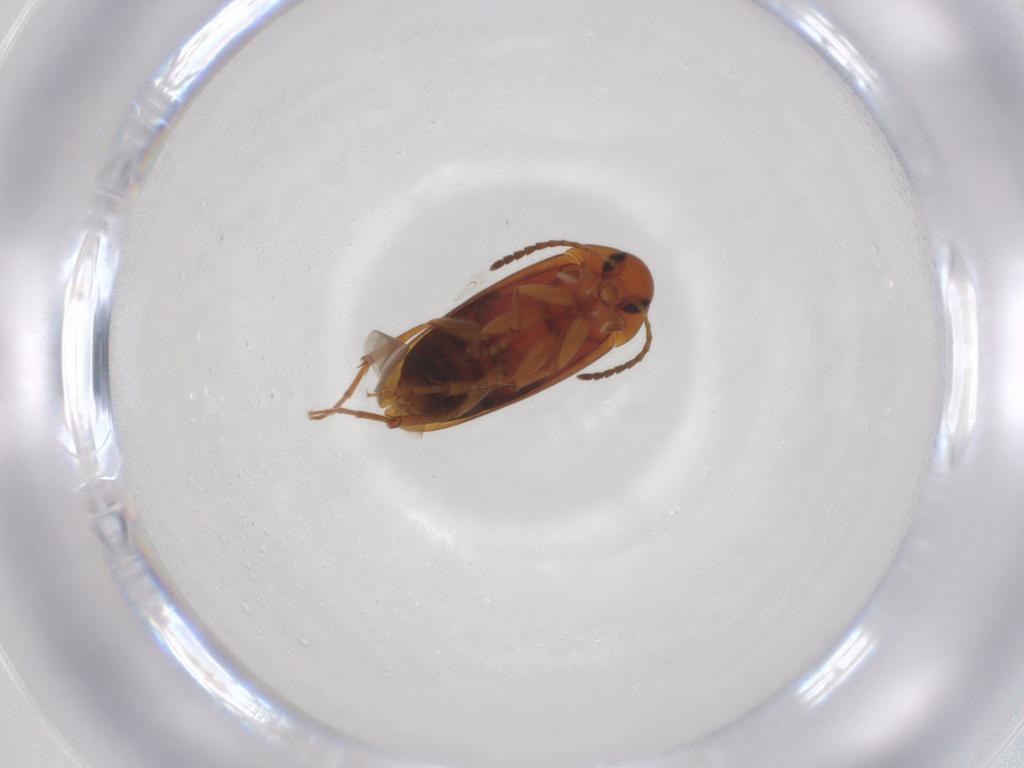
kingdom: Animalia
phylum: Arthropoda
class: Insecta
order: Coleoptera
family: Scraptiidae
